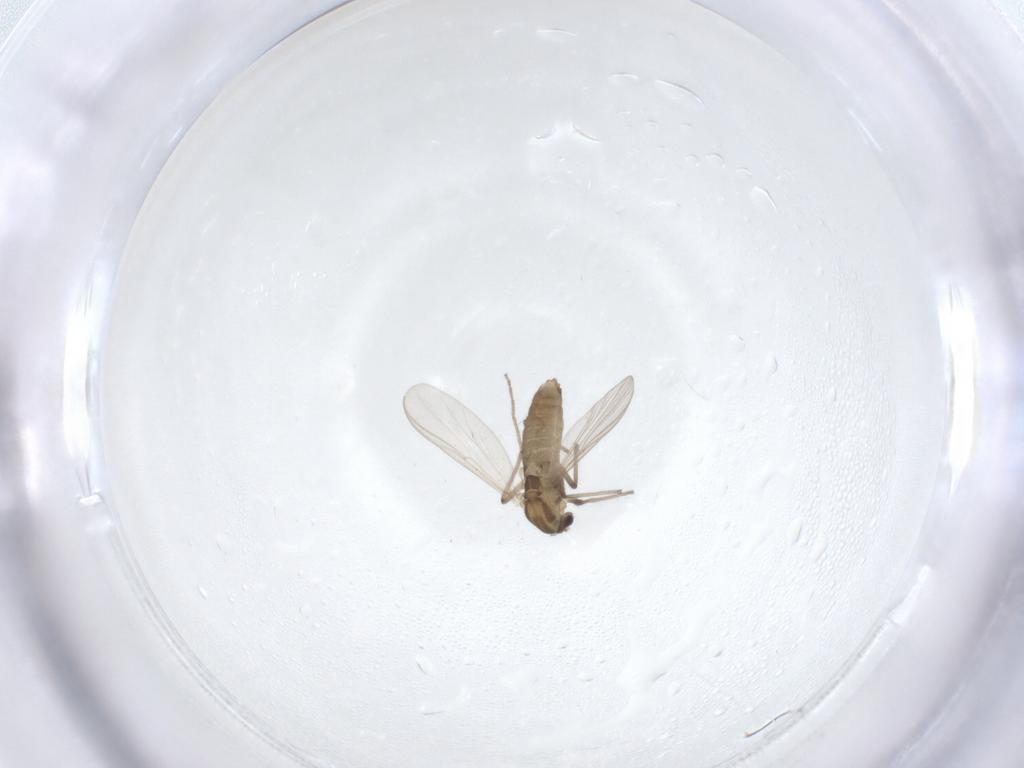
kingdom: Animalia
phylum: Arthropoda
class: Insecta
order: Diptera
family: Chironomidae
